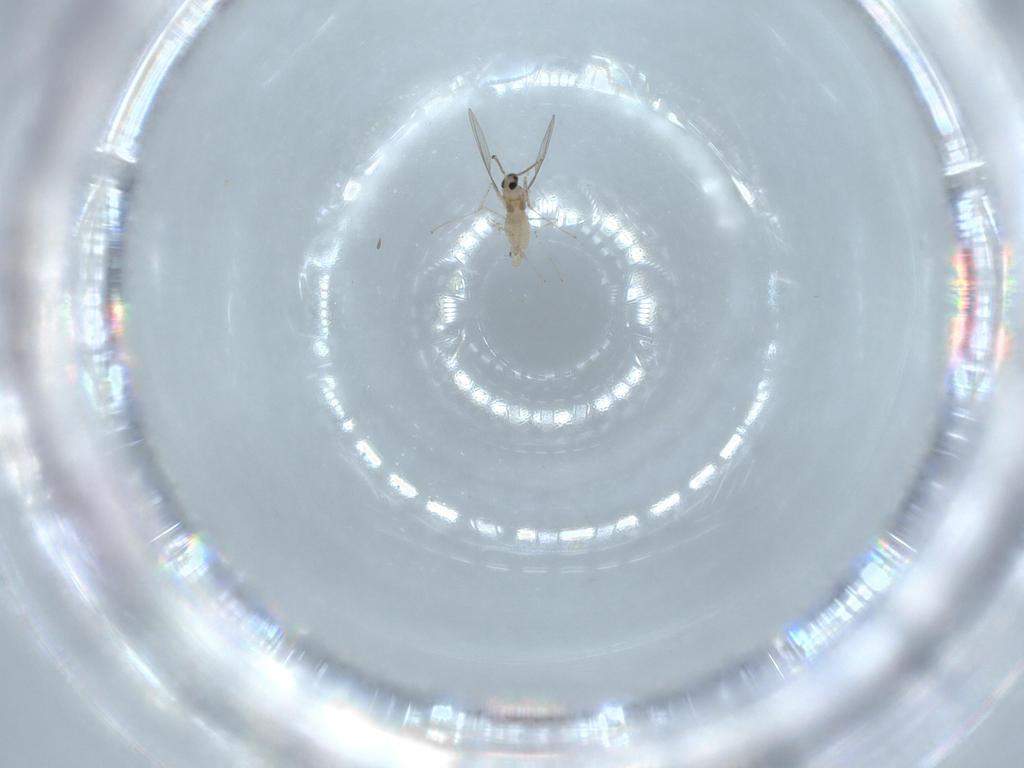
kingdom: Animalia
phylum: Arthropoda
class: Insecta
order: Diptera
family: Cecidomyiidae
